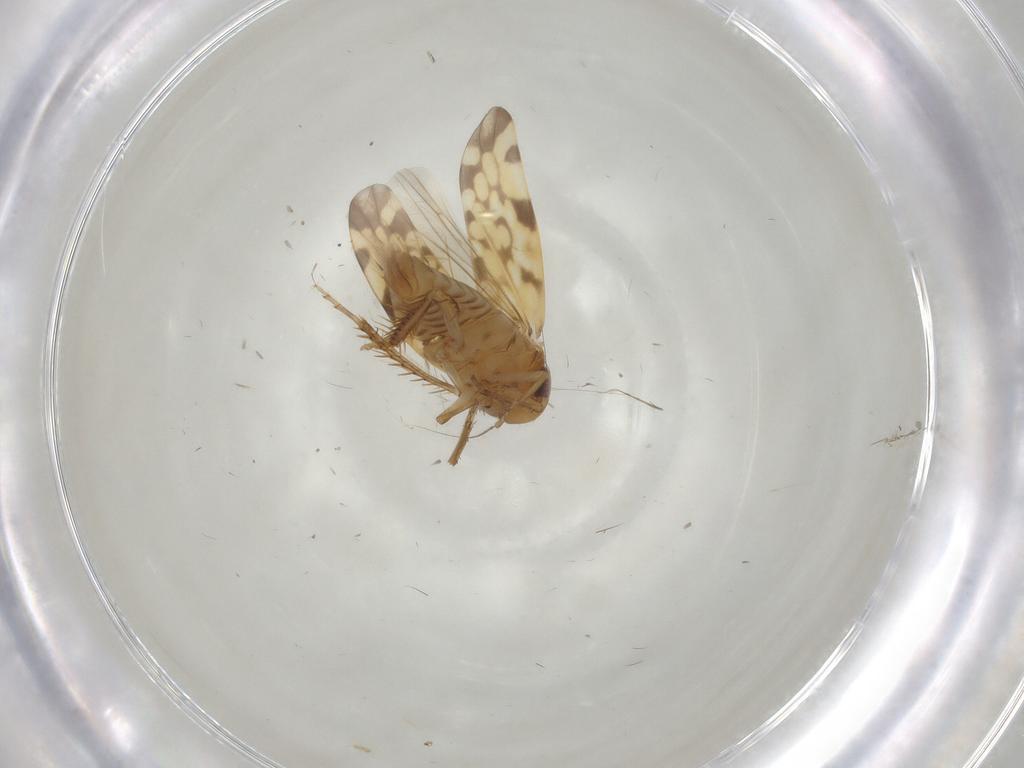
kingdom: Animalia
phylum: Arthropoda
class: Insecta
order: Hemiptera
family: Cicadellidae
